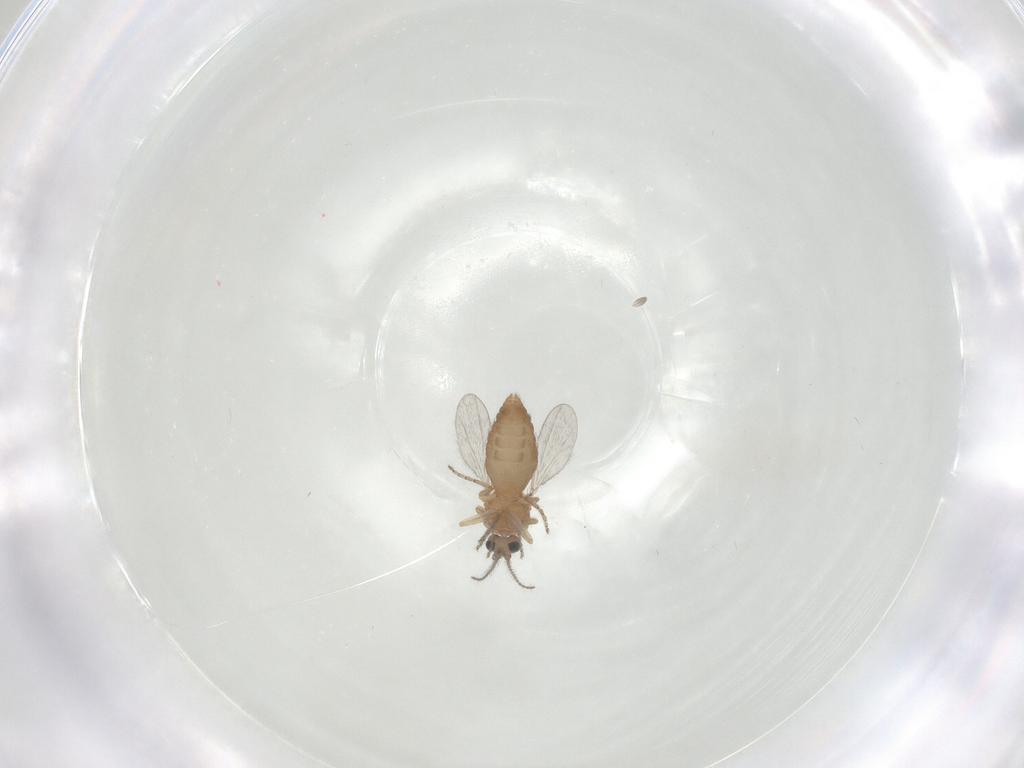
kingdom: Animalia
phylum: Arthropoda
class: Insecta
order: Diptera
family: Ceratopogonidae
